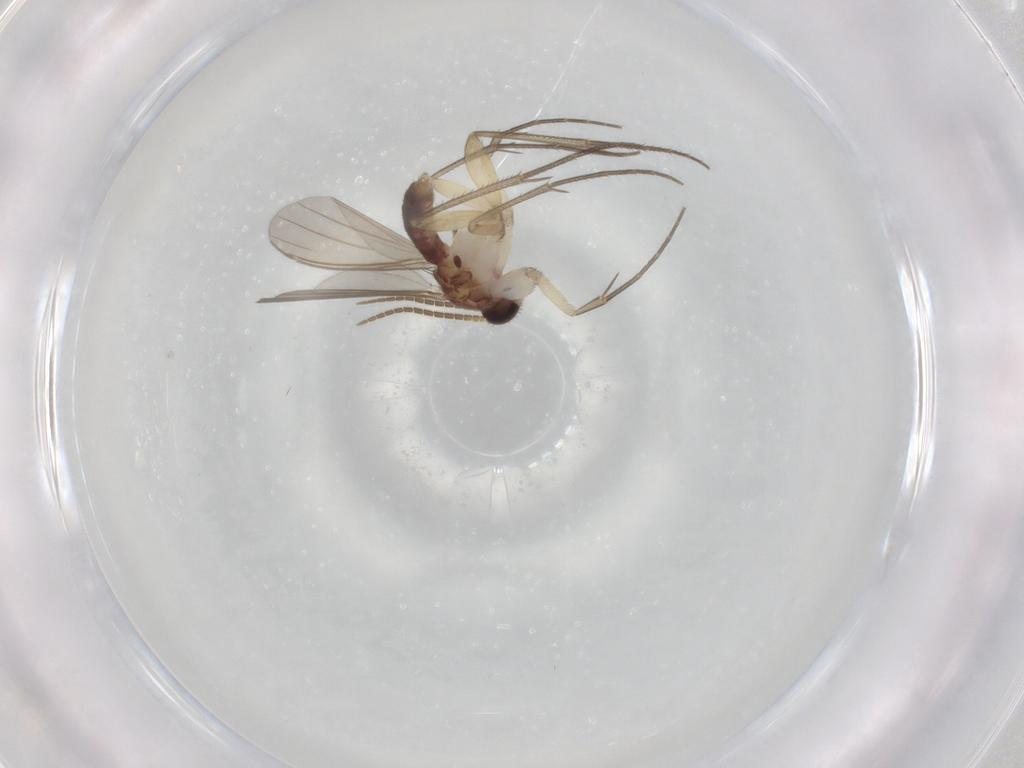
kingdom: Animalia
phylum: Arthropoda
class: Insecta
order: Diptera
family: Mycetophilidae
